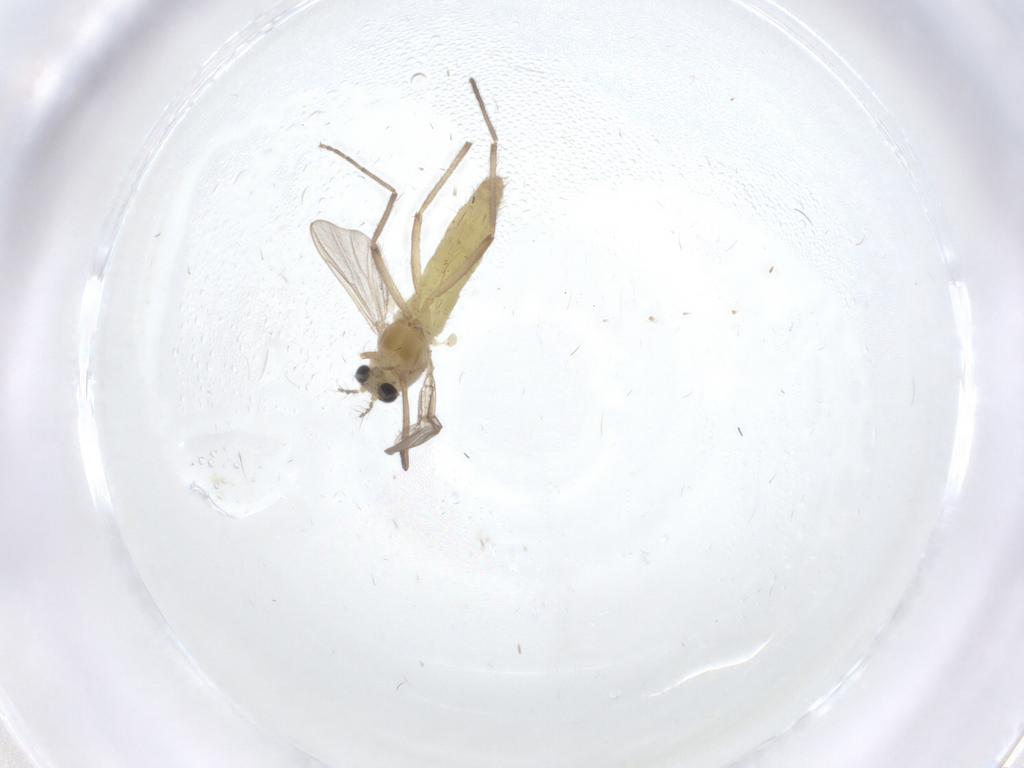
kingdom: Animalia
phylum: Arthropoda
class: Insecta
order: Diptera
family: Chironomidae
